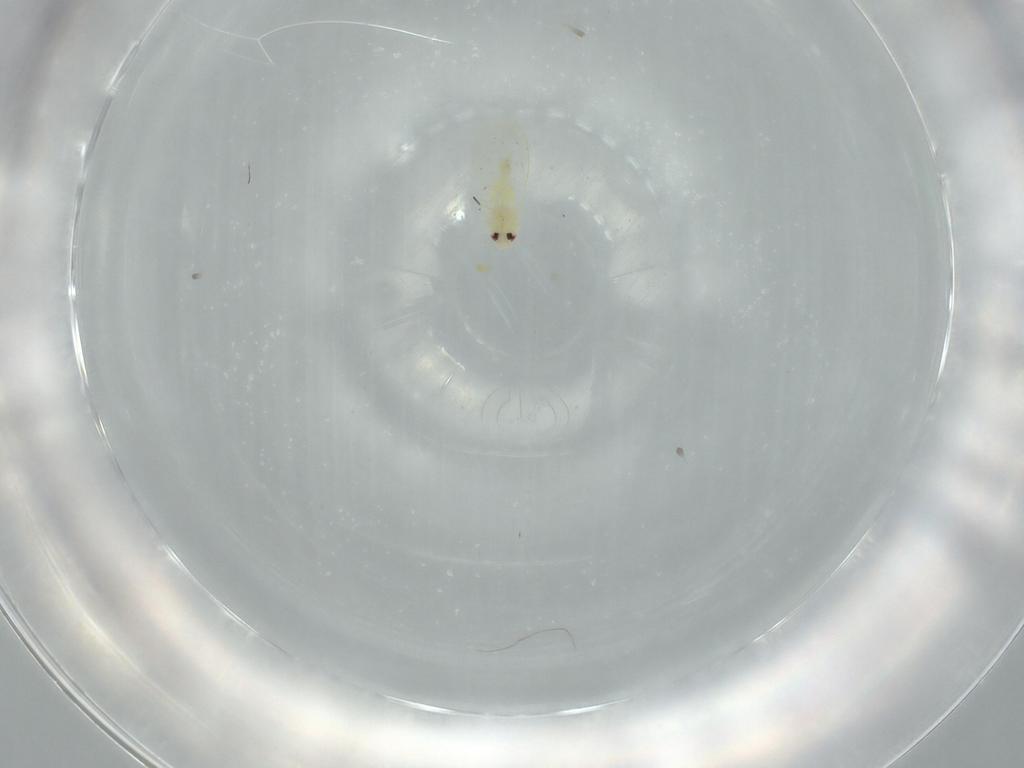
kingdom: Animalia
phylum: Arthropoda
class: Insecta
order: Hemiptera
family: Aleyrodidae
